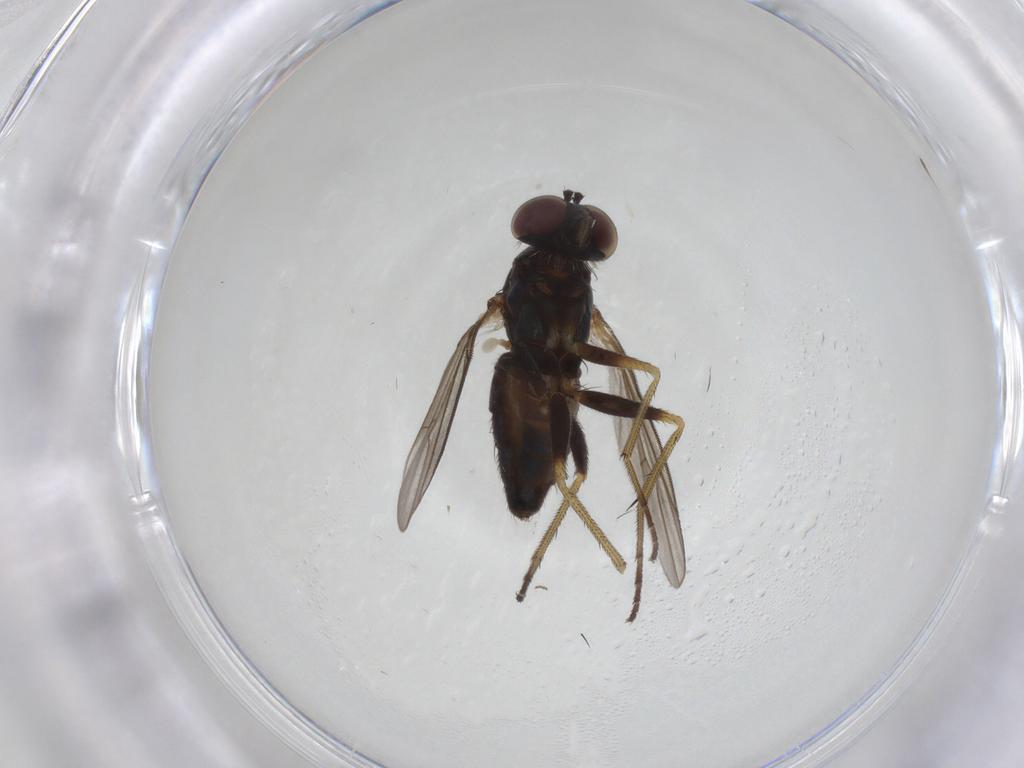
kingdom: Animalia
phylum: Arthropoda
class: Insecta
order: Diptera
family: Dolichopodidae
